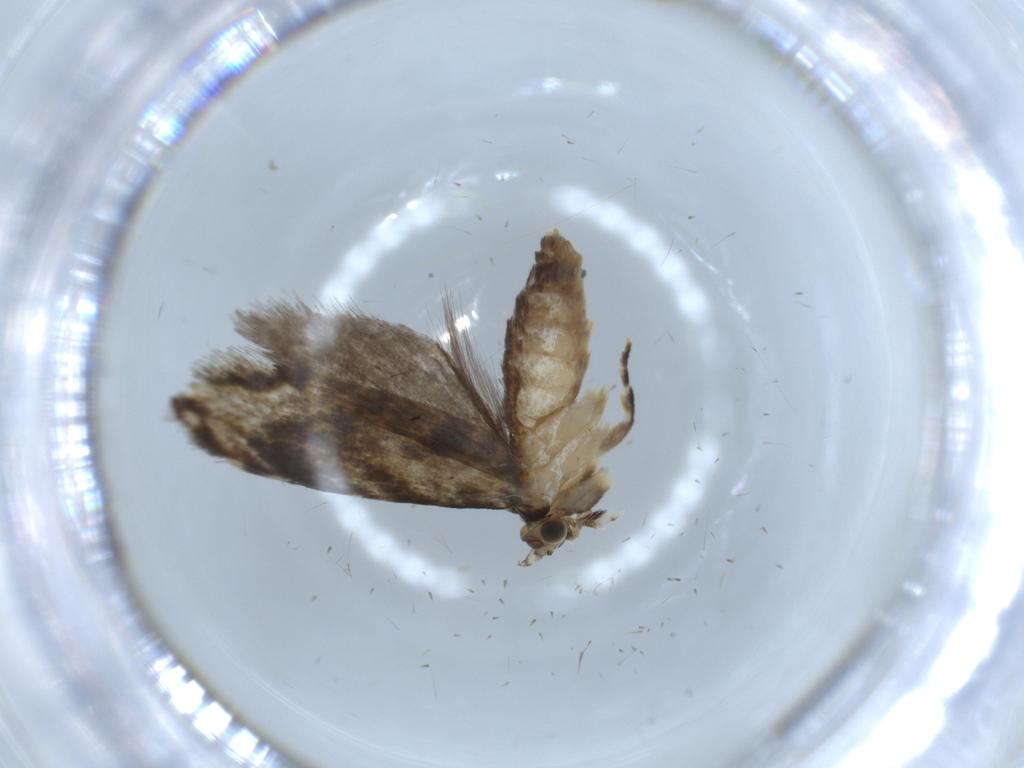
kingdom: Animalia
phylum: Arthropoda
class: Insecta
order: Lepidoptera
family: Tineidae
